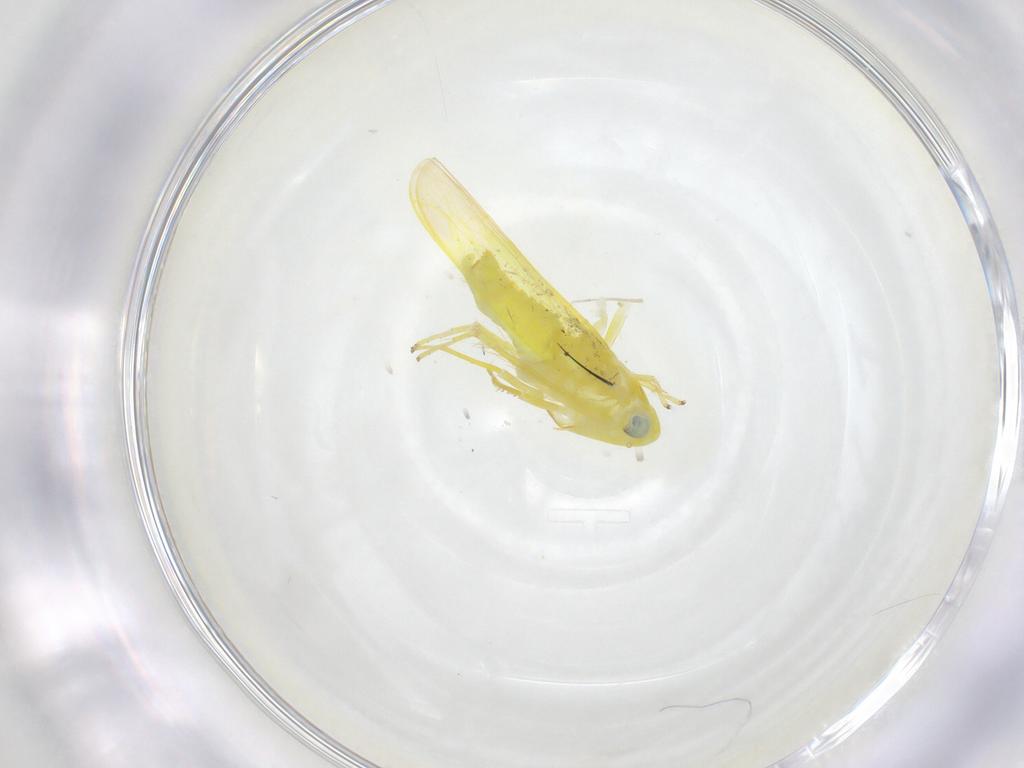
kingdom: Animalia
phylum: Arthropoda
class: Insecta
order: Hemiptera
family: Cicadellidae
